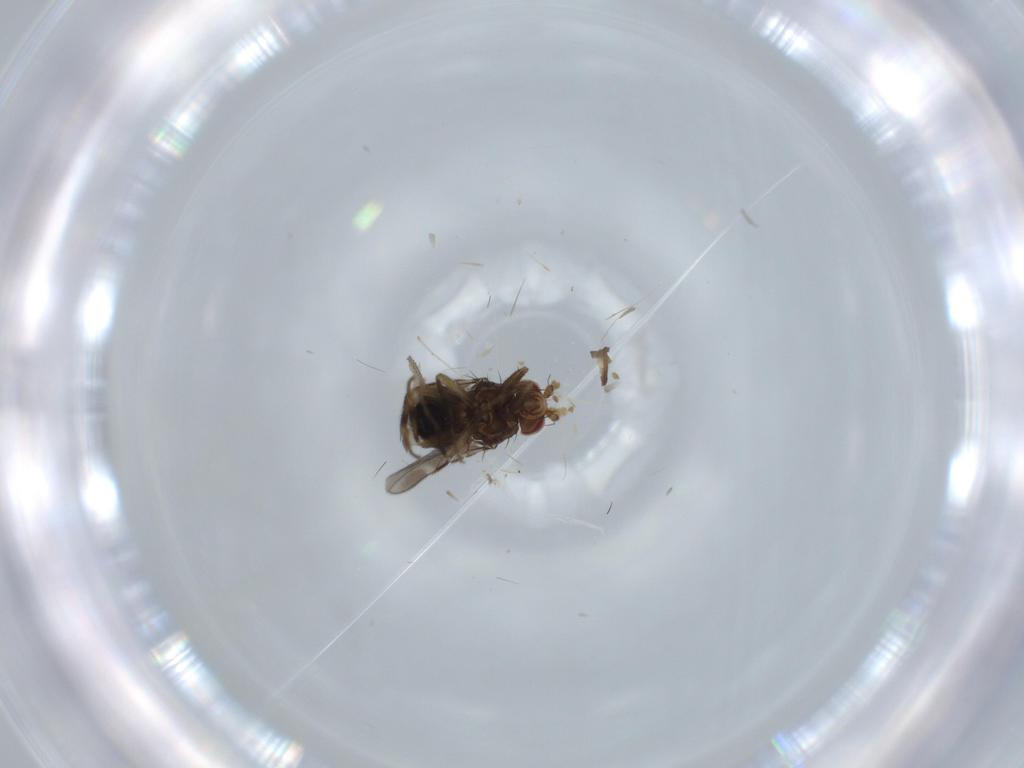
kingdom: Animalia
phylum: Arthropoda
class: Insecta
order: Diptera
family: Sciaridae
